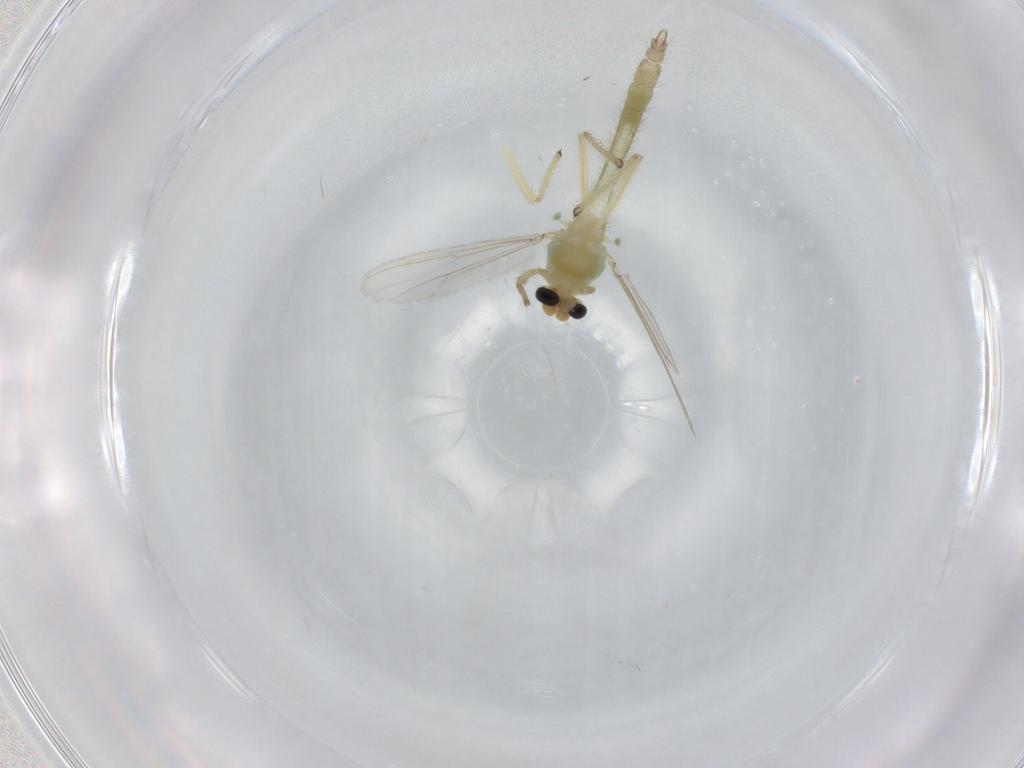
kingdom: Animalia
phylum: Arthropoda
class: Insecta
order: Diptera
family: Chironomidae
